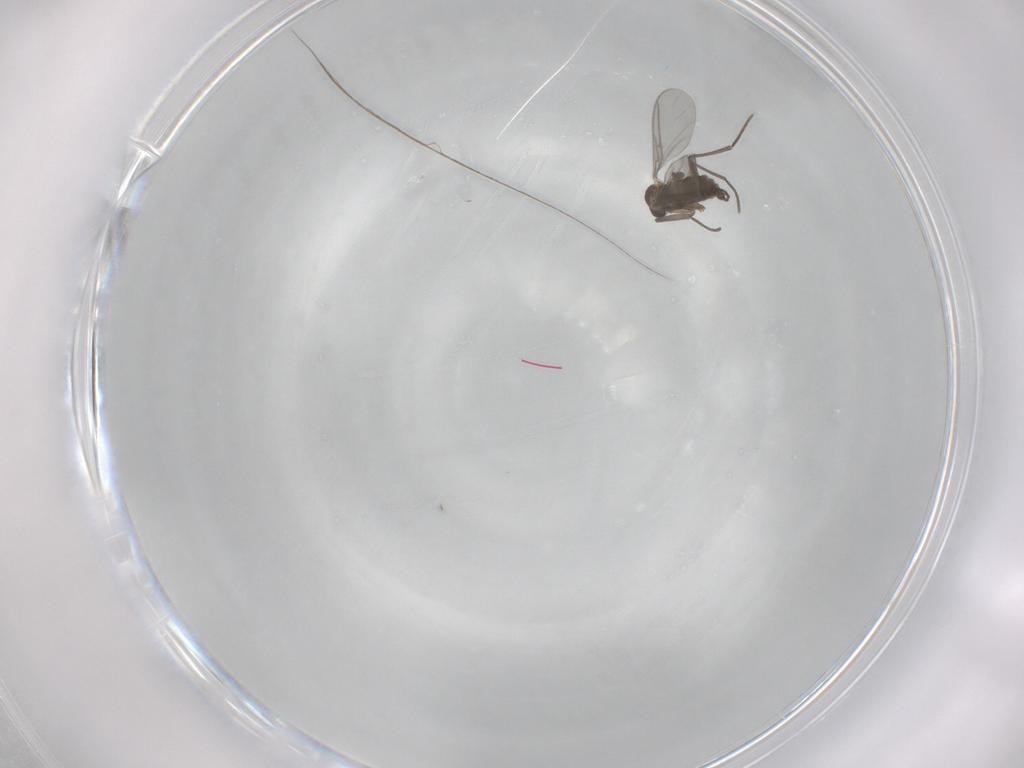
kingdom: Animalia
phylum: Arthropoda
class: Insecta
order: Diptera
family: Sciaridae
